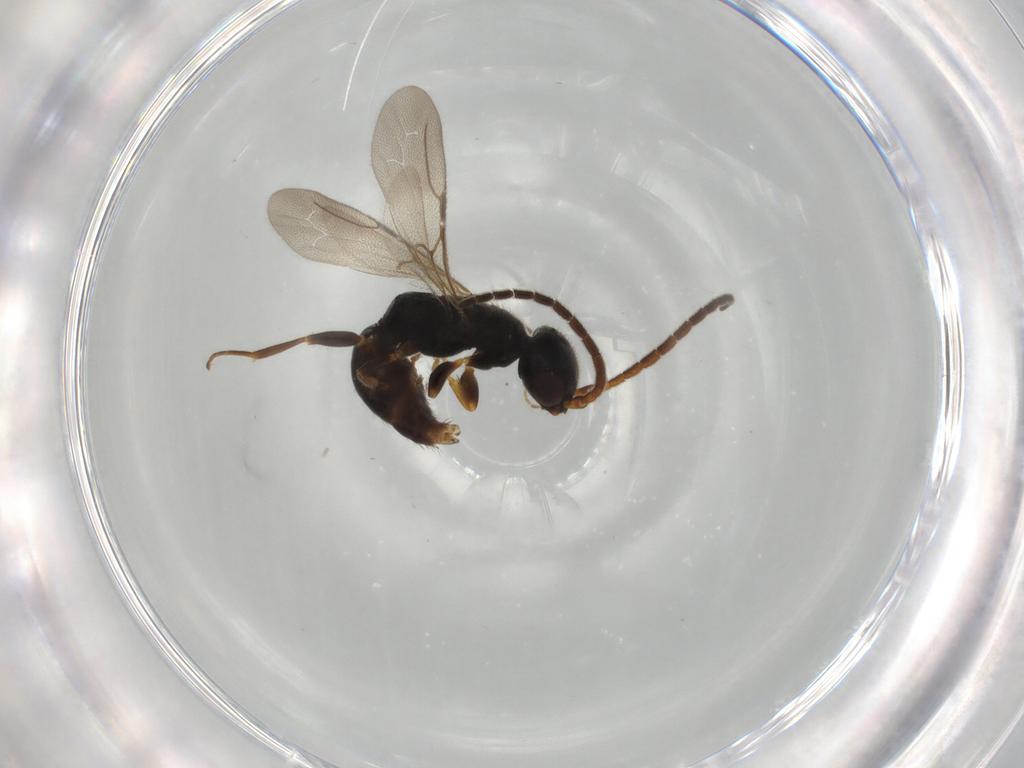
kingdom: Animalia
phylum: Arthropoda
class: Insecta
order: Hymenoptera
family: Bethylidae
